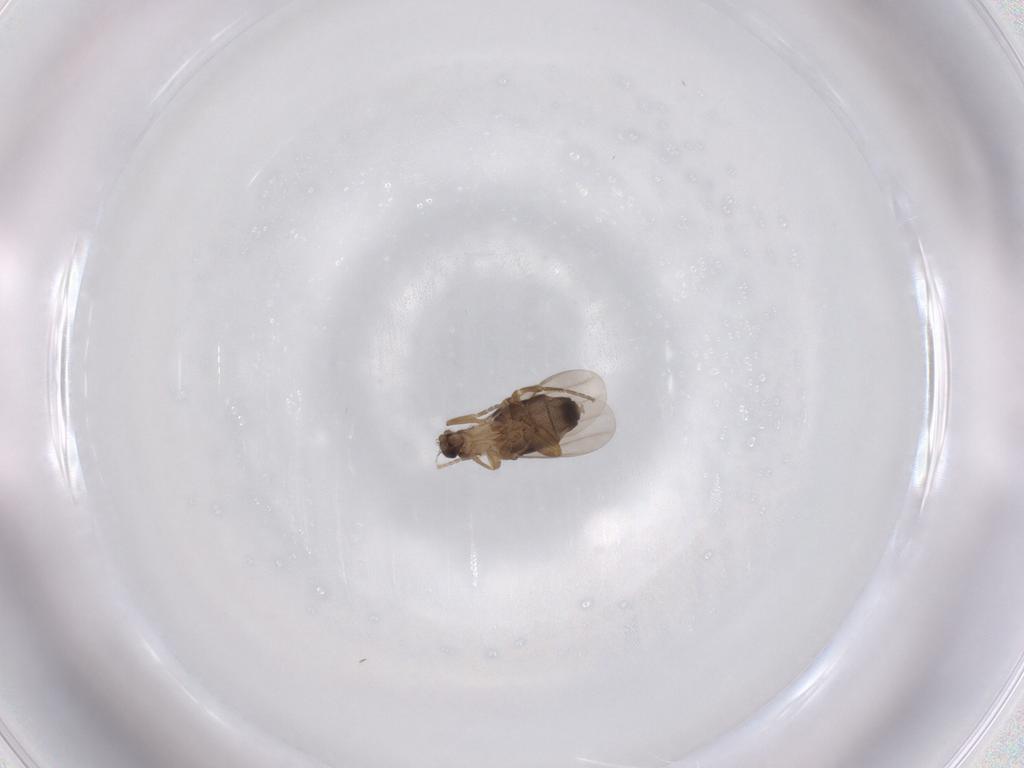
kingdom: Animalia
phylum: Arthropoda
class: Insecta
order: Diptera
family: Phoridae
